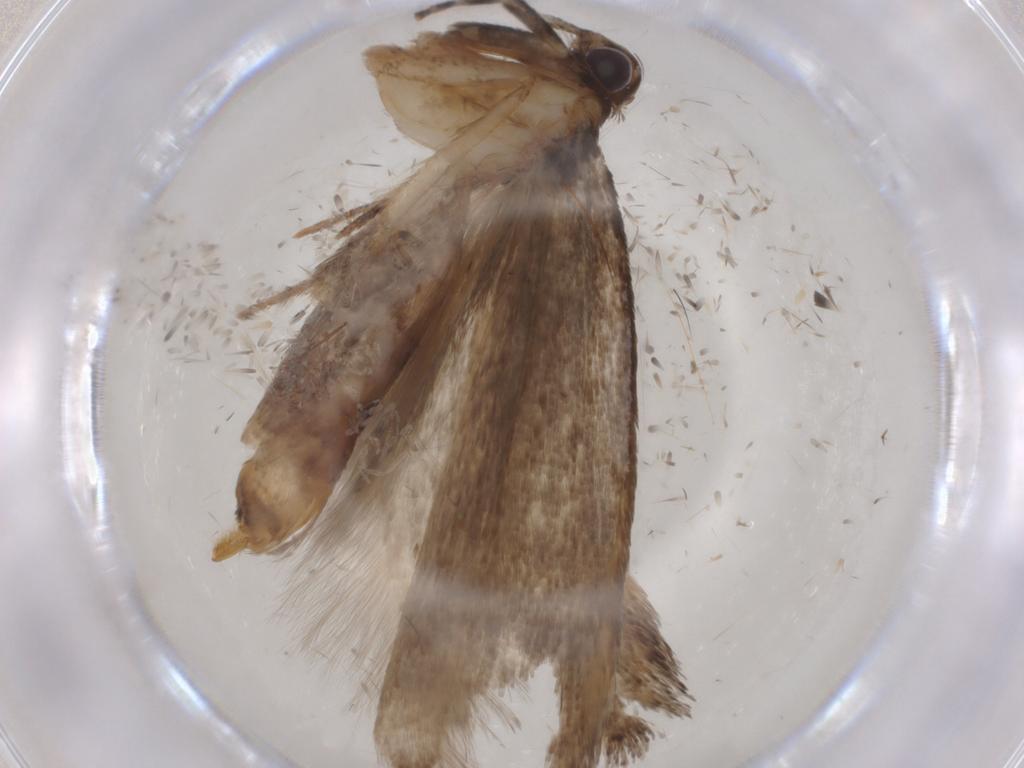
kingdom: Animalia
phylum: Arthropoda
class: Insecta
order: Lepidoptera
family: Gelechiidae
